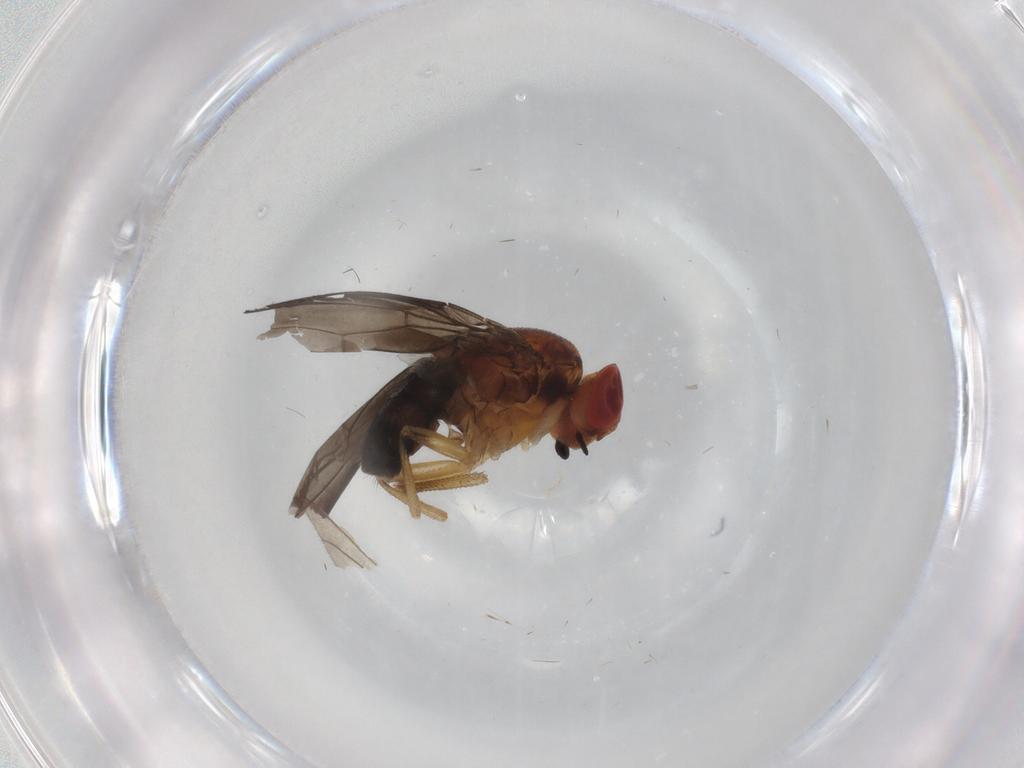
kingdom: Animalia
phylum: Arthropoda
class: Insecta
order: Diptera
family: Drosophilidae
